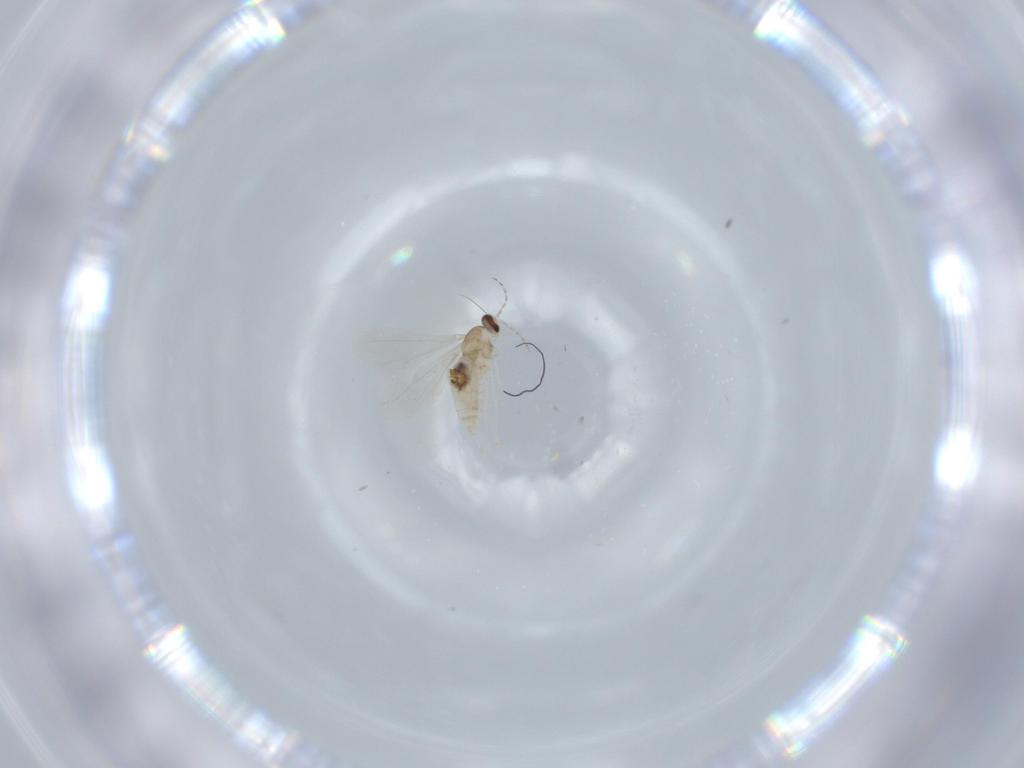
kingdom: Animalia
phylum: Arthropoda
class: Insecta
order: Diptera
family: Cecidomyiidae
